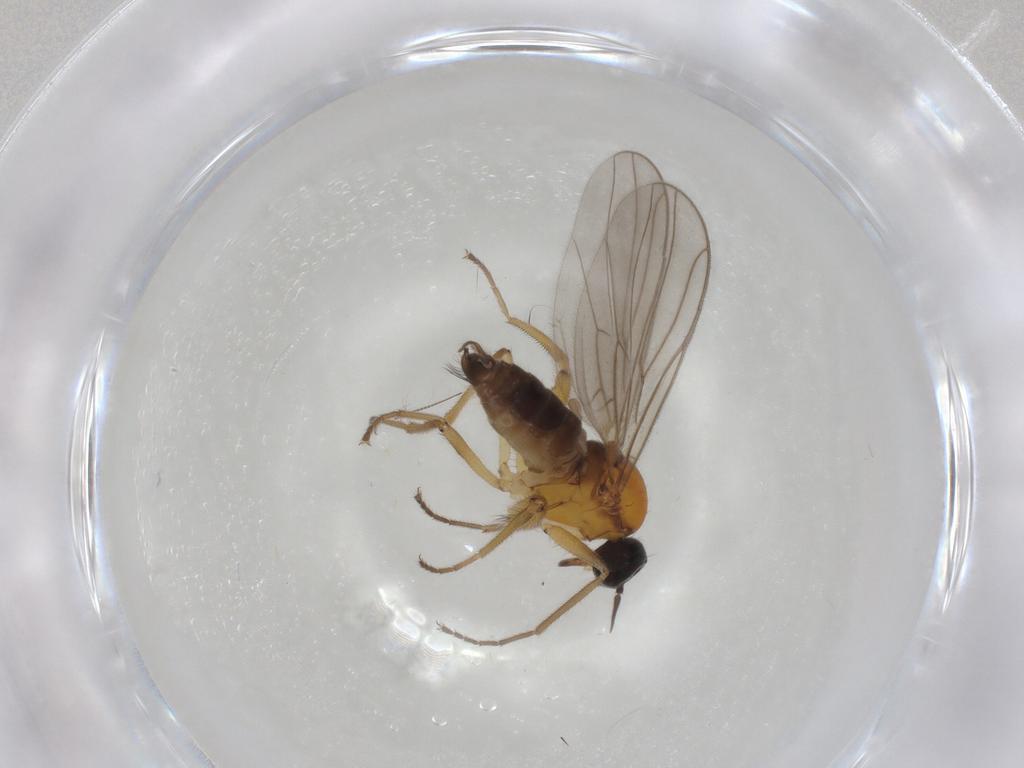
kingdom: Animalia
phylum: Arthropoda
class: Insecta
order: Diptera
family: Hybotidae
